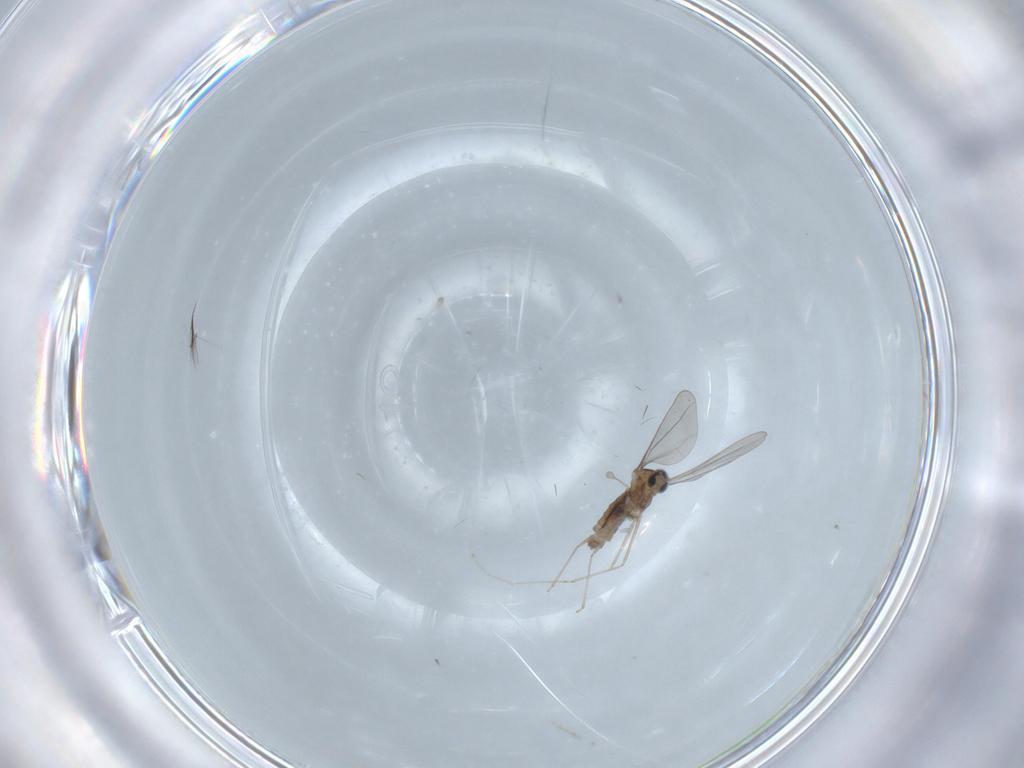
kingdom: Animalia
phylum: Arthropoda
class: Insecta
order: Diptera
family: Cecidomyiidae
